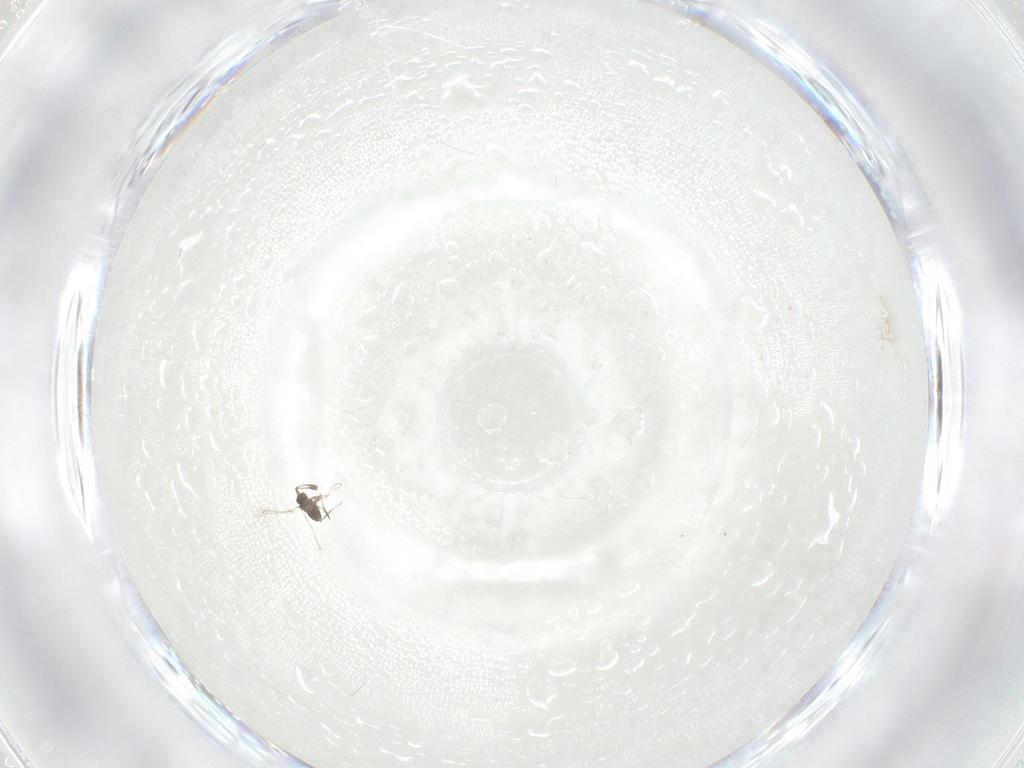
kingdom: Animalia
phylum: Arthropoda
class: Insecta
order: Hymenoptera
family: Mymaridae
